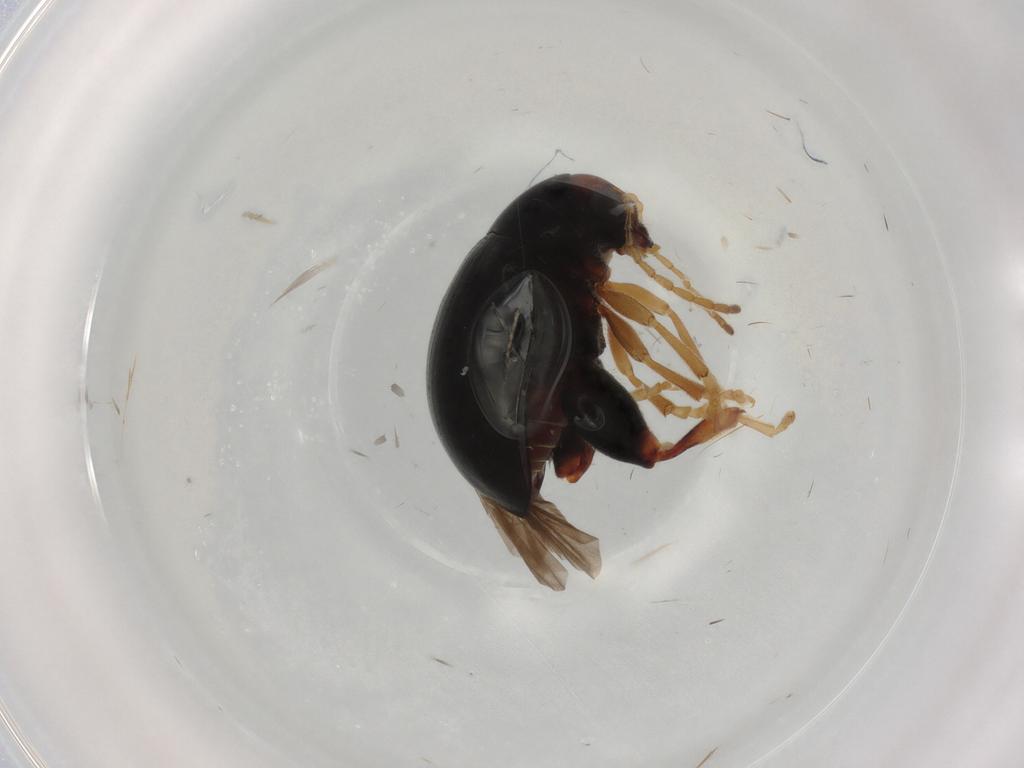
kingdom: Animalia
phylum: Arthropoda
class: Insecta
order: Coleoptera
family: Chrysomelidae
